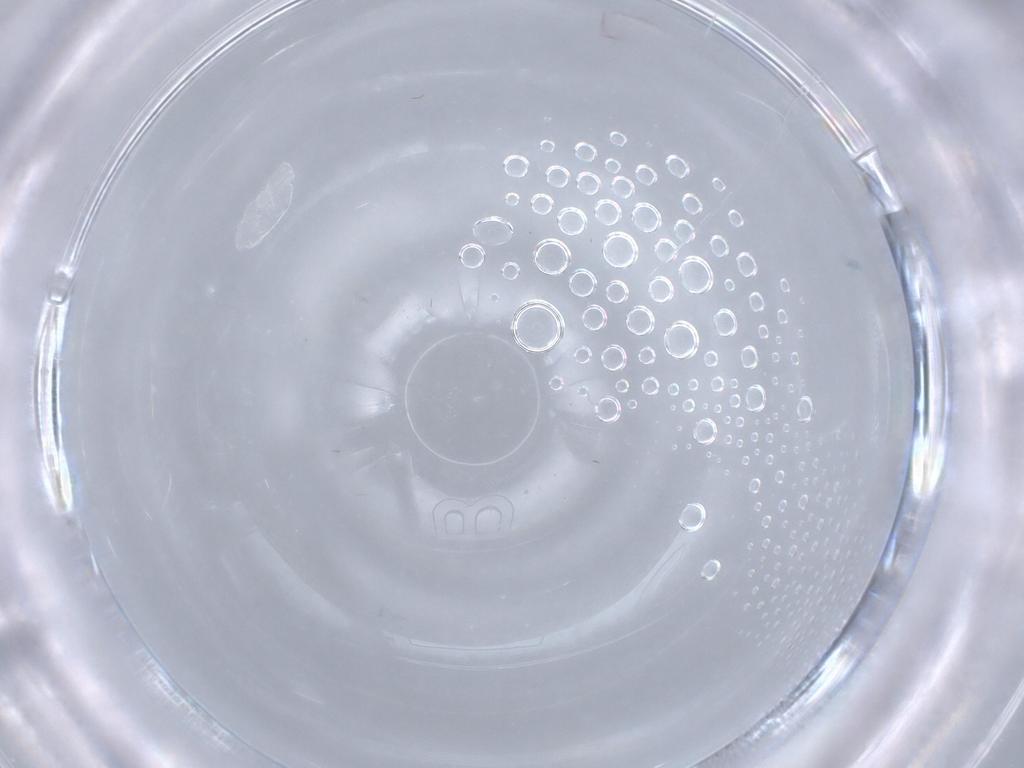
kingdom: Animalia
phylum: Arthropoda
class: Insecta
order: Diptera
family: Cecidomyiidae
